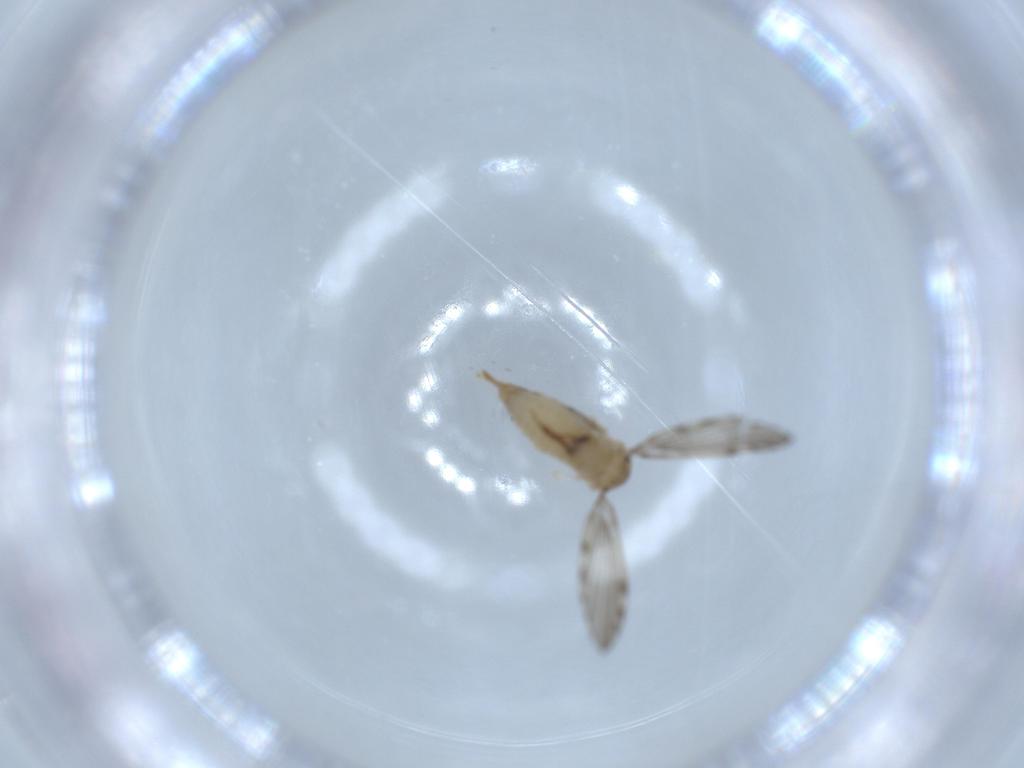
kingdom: Animalia
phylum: Arthropoda
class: Insecta
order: Diptera
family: Psychodidae
